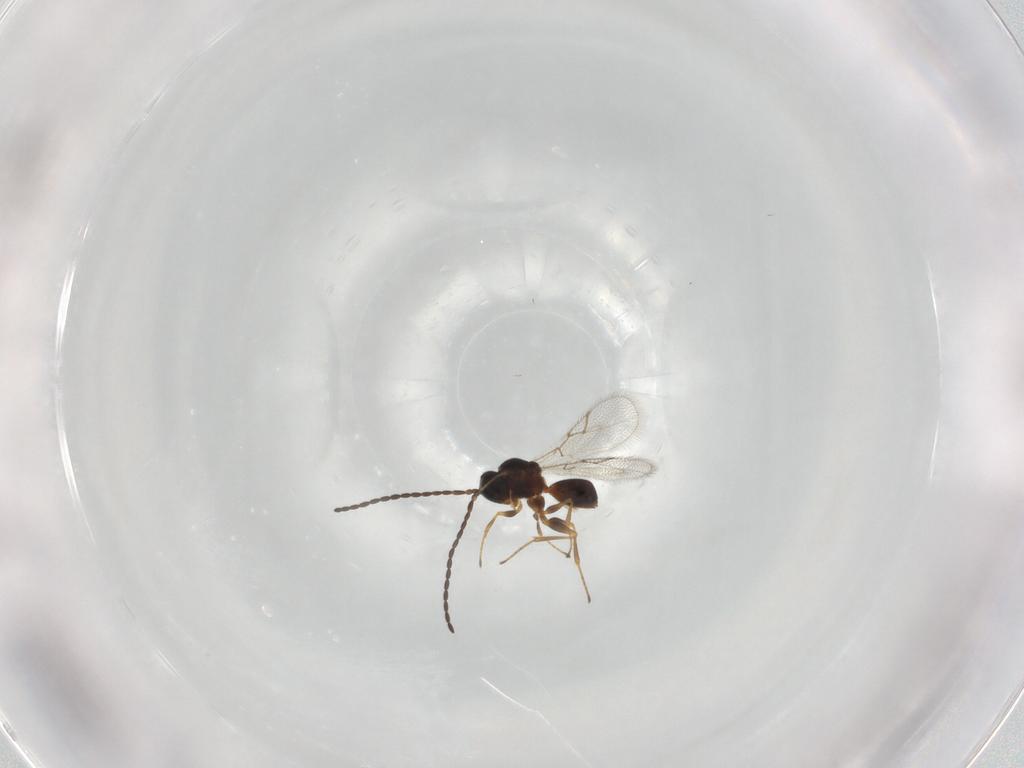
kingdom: Animalia
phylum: Arthropoda
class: Insecta
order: Hymenoptera
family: Figitidae
